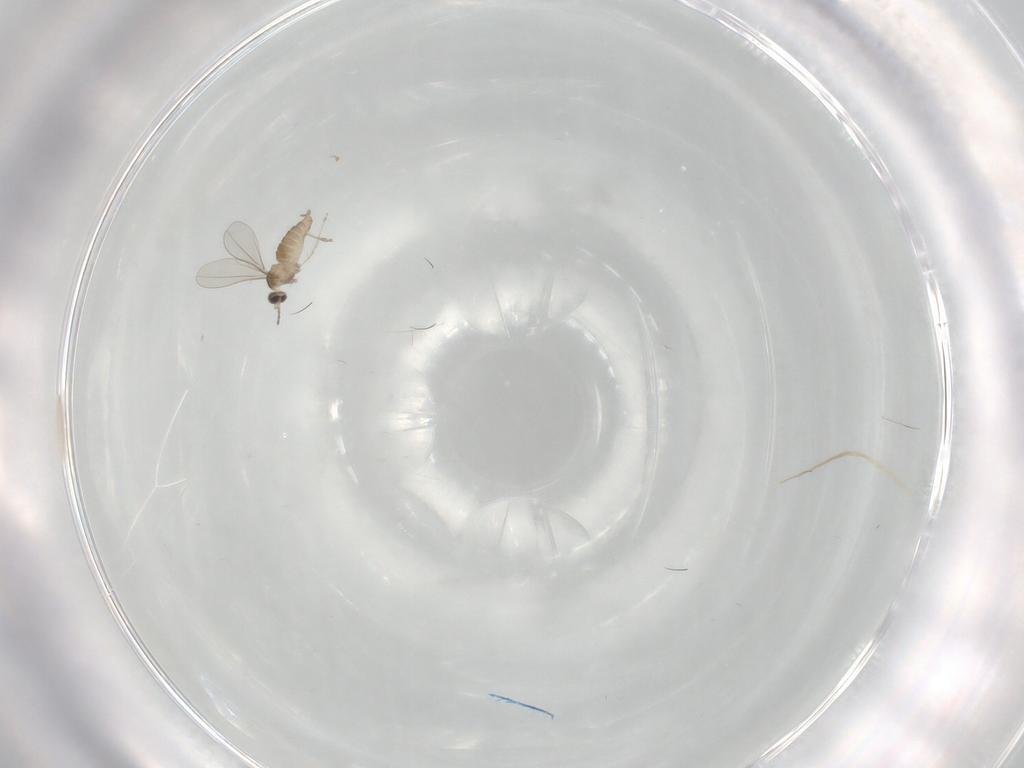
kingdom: Animalia
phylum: Arthropoda
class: Insecta
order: Diptera
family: Cecidomyiidae
